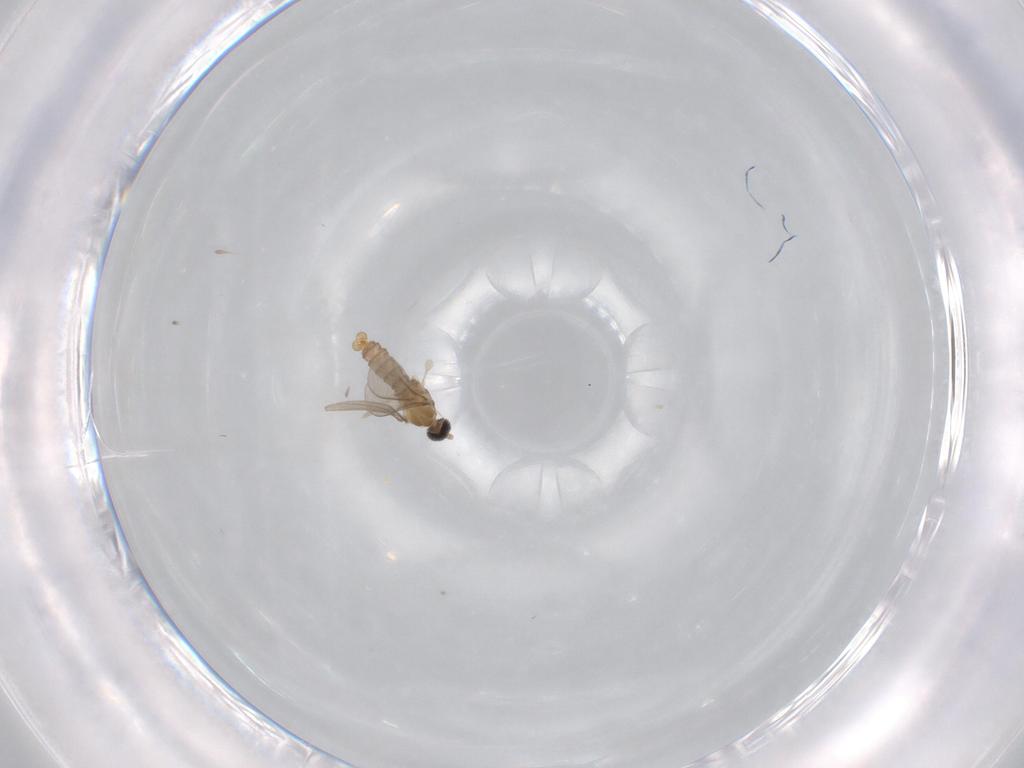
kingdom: Animalia
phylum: Arthropoda
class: Insecta
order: Diptera
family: Cecidomyiidae
